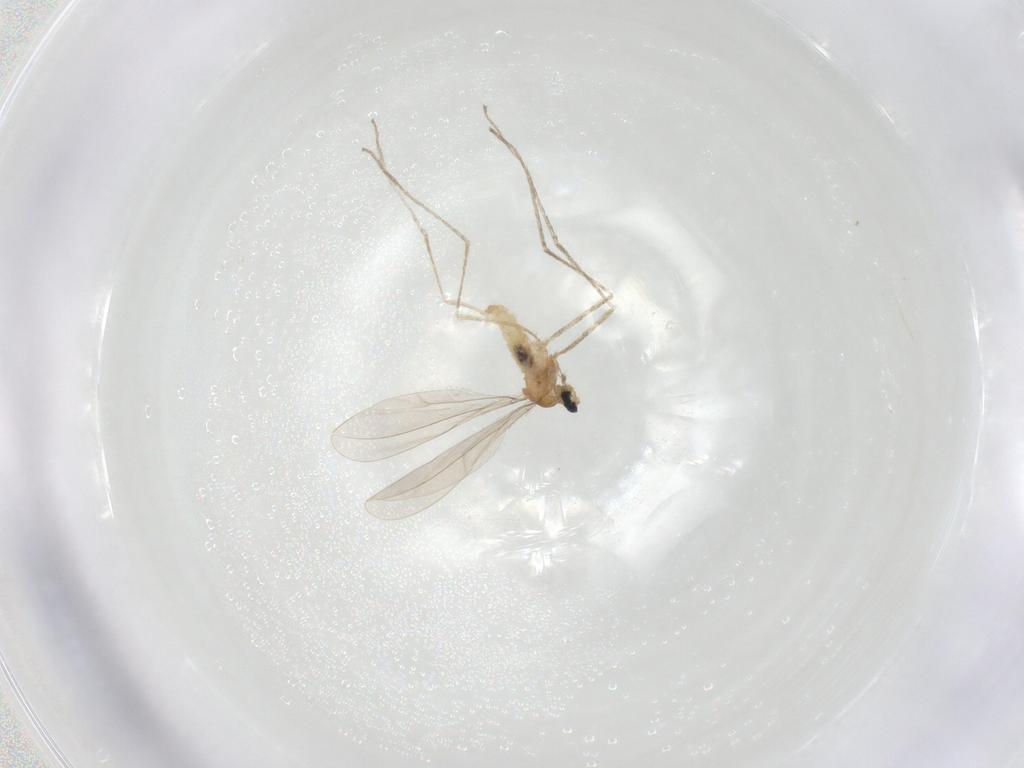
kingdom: Animalia
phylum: Arthropoda
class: Insecta
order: Diptera
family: Cecidomyiidae
